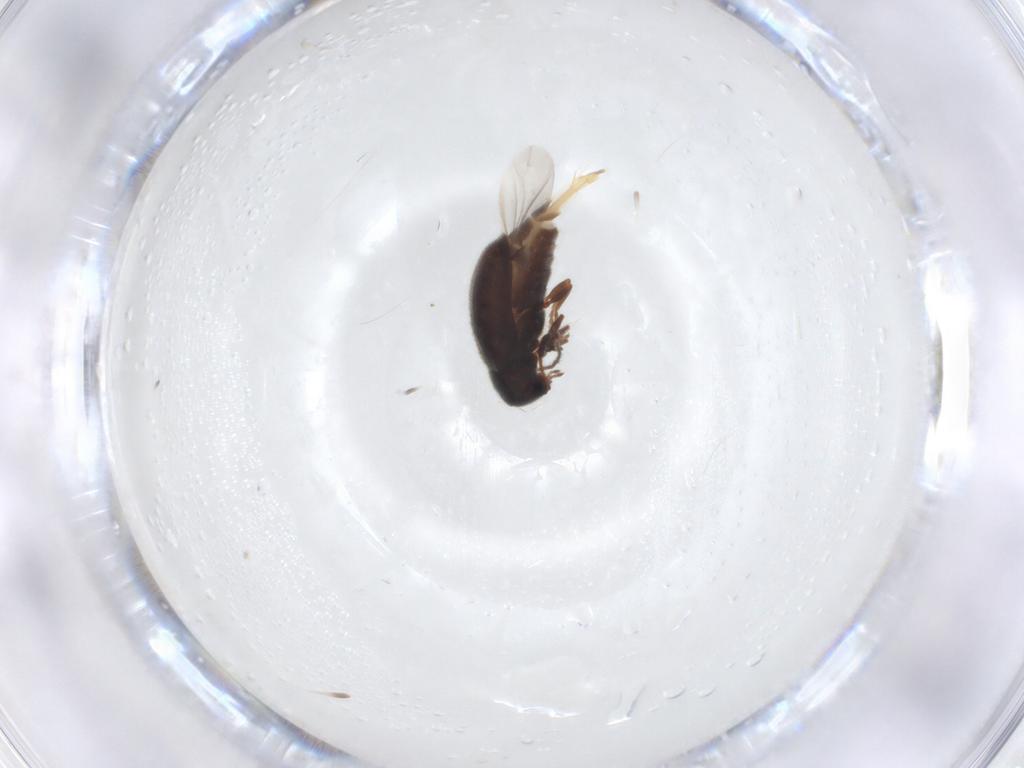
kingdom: Animalia
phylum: Arthropoda
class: Insecta
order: Coleoptera
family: Ptinidae
